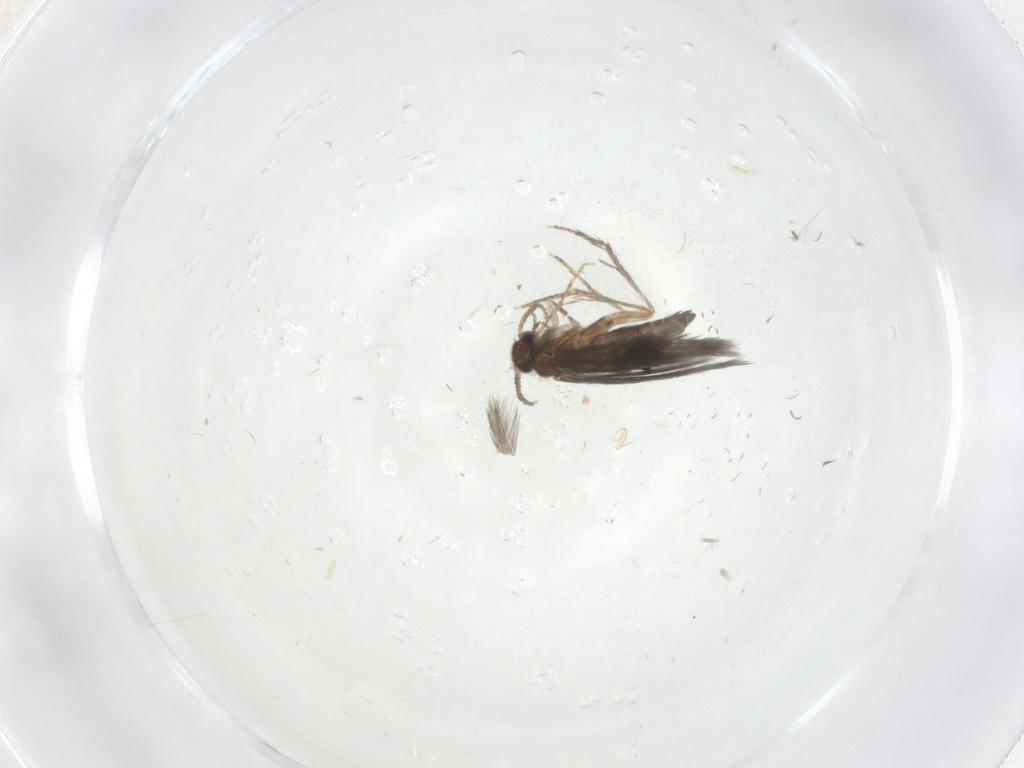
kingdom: Animalia
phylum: Arthropoda
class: Insecta
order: Trichoptera
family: Hydroptilidae
